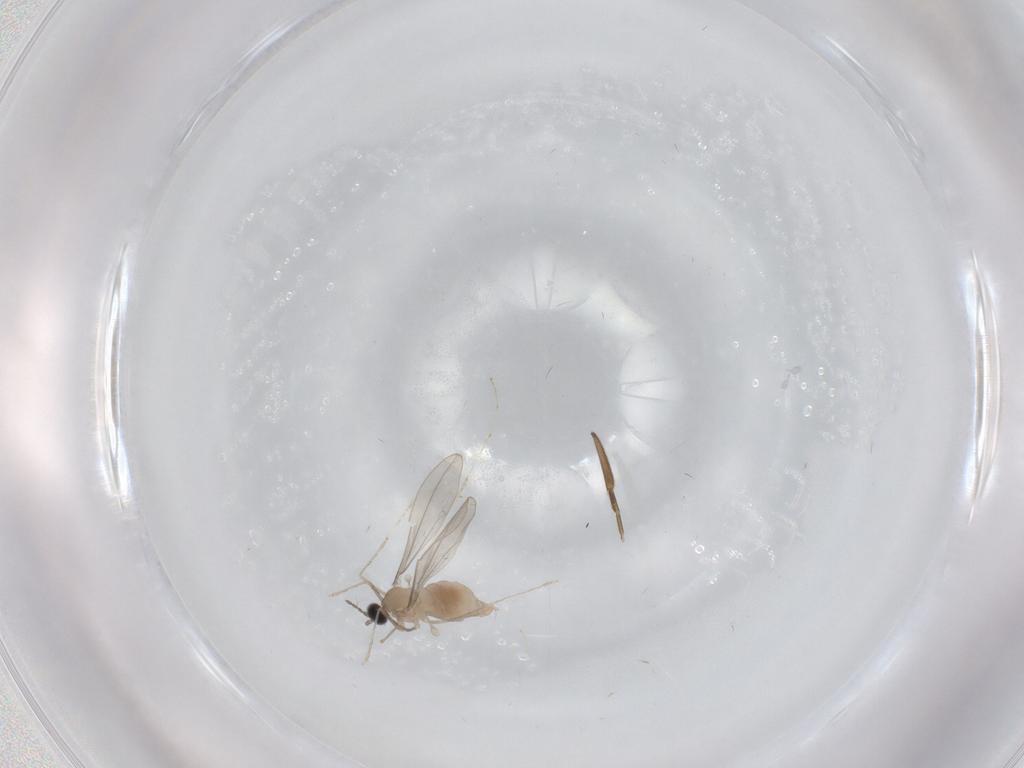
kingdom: Animalia
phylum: Arthropoda
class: Insecta
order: Diptera
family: Cecidomyiidae
